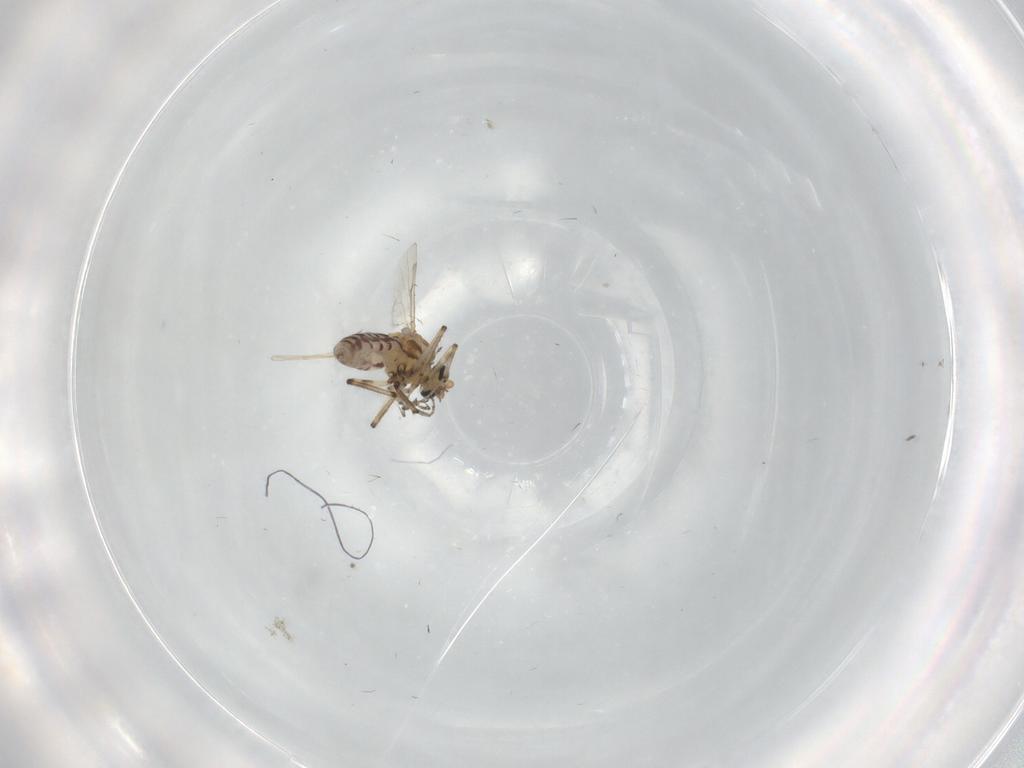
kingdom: Animalia
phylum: Arthropoda
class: Insecta
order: Diptera
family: Ceratopogonidae
